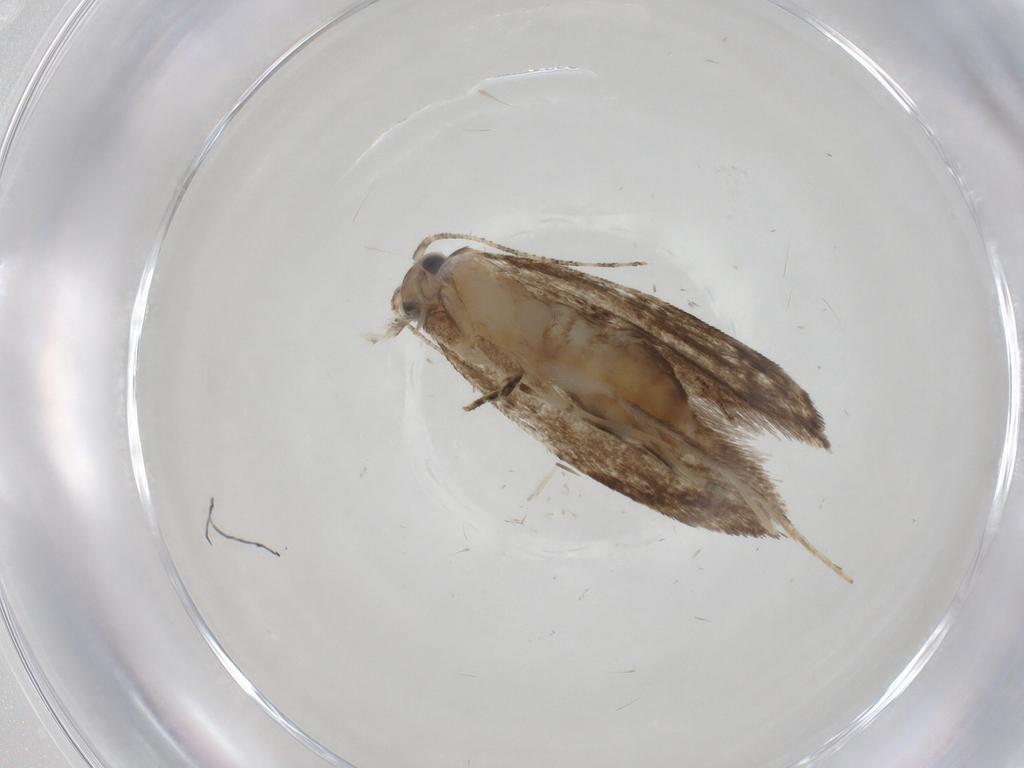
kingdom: Animalia
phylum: Arthropoda
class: Insecta
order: Lepidoptera
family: Tineidae
